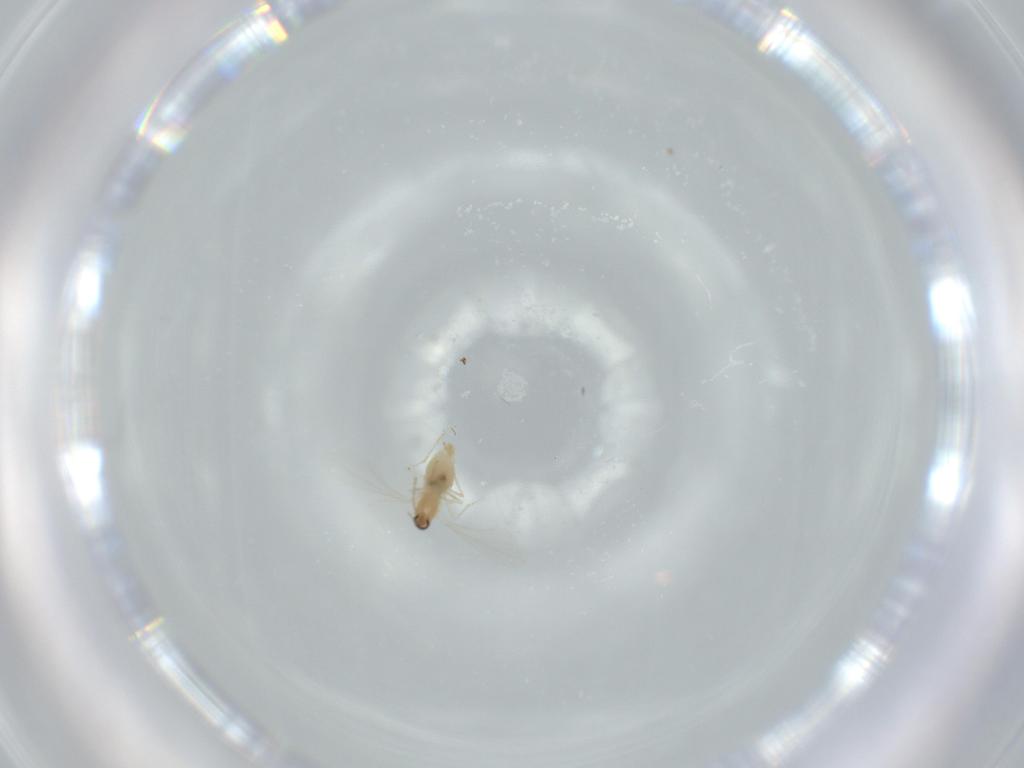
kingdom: Animalia
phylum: Arthropoda
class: Insecta
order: Diptera
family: Cecidomyiidae
